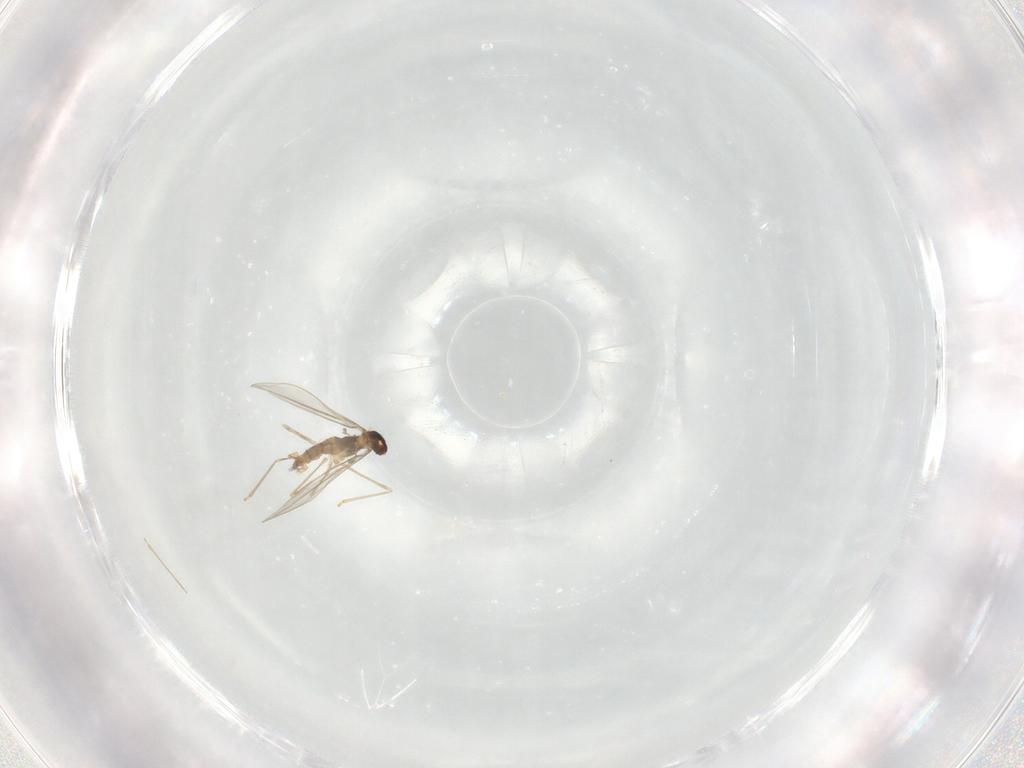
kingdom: Animalia
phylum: Arthropoda
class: Insecta
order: Diptera
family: Cecidomyiidae
